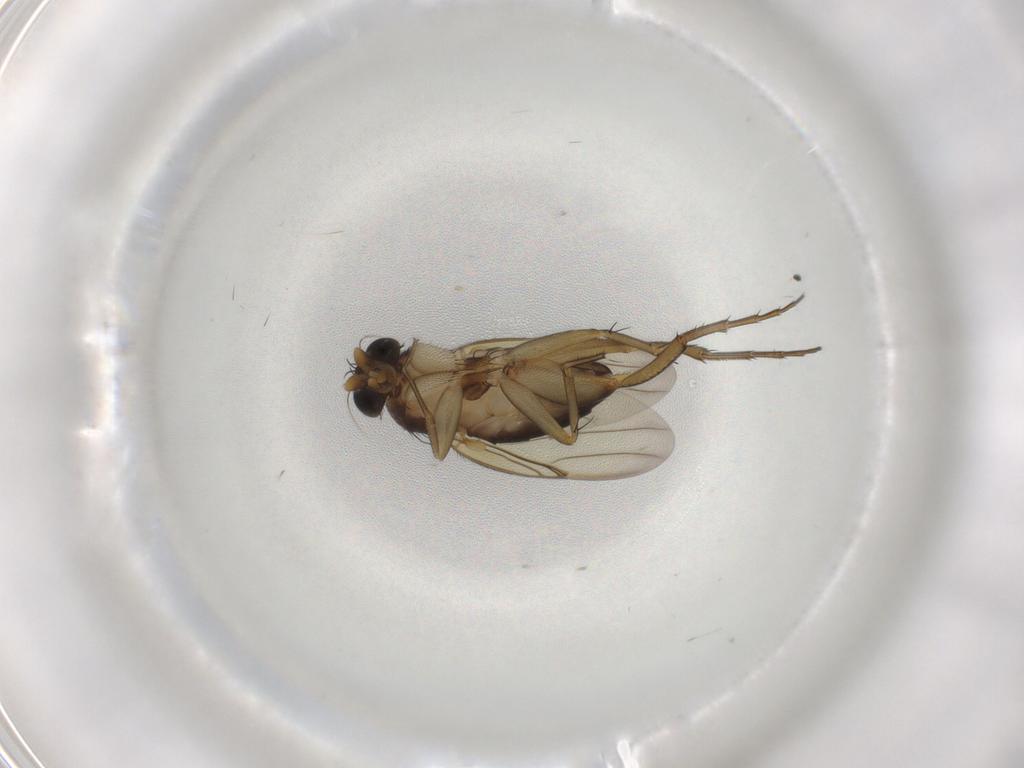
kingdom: Animalia
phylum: Arthropoda
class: Insecta
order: Diptera
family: Phoridae
